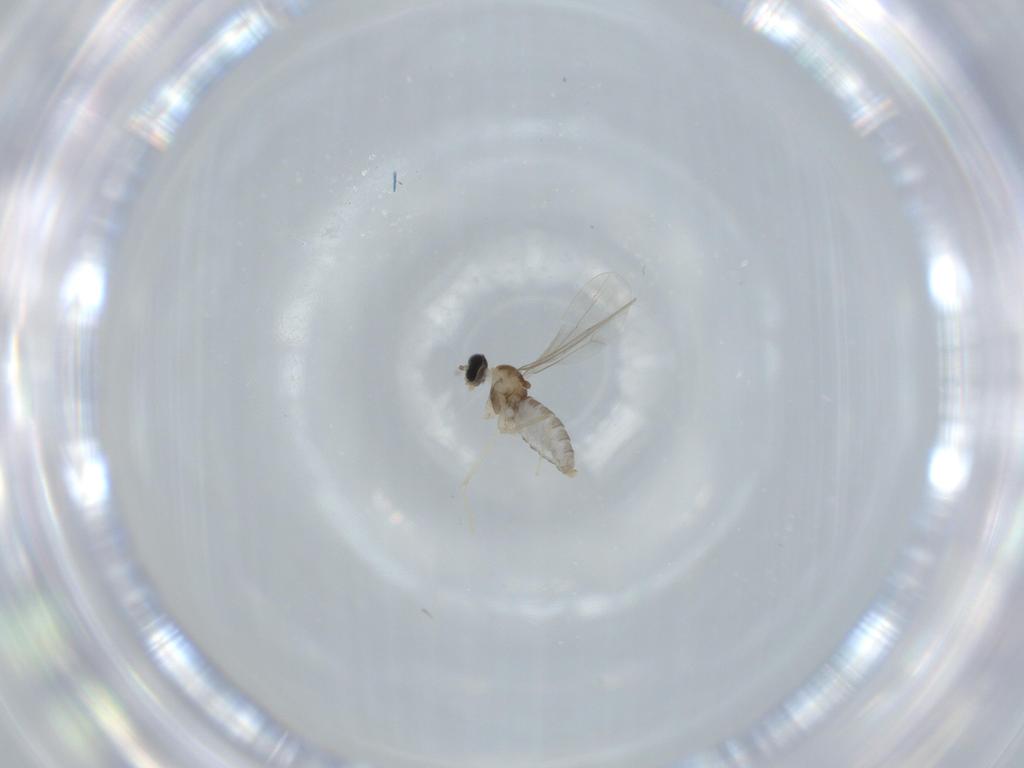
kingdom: Animalia
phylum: Arthropoda
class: Insecta
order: Diptera
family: Cecidomyiidae
